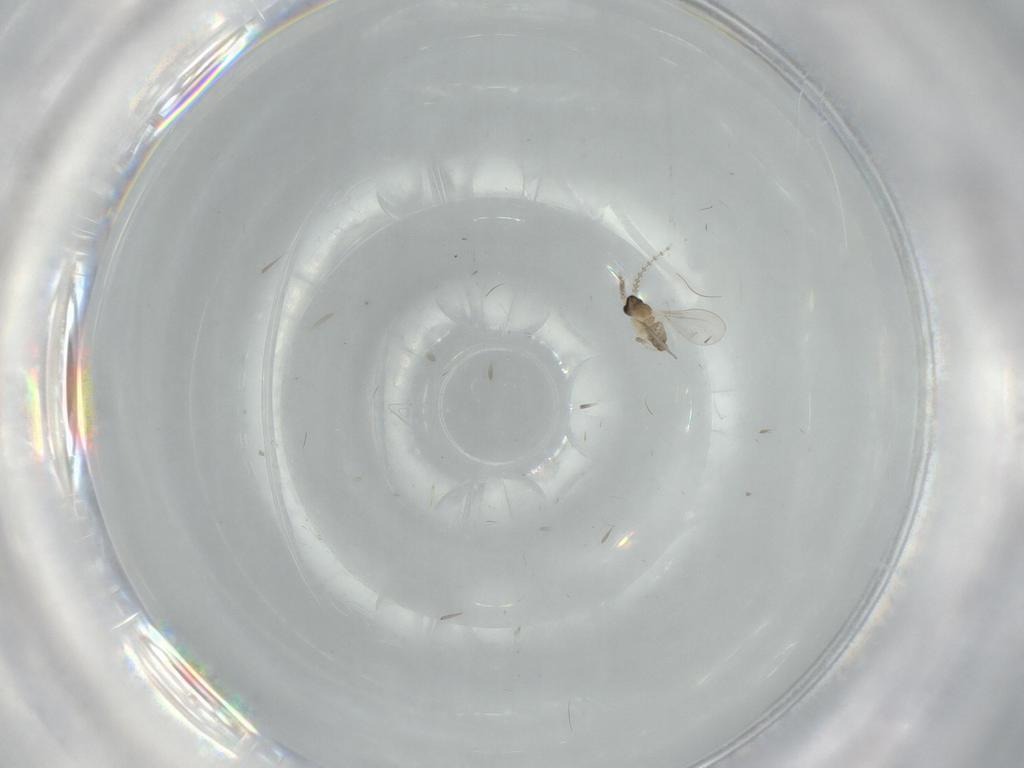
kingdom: Animalia
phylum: Arthropoda
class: Insecta
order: Diptera
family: Cecidomyiidae
